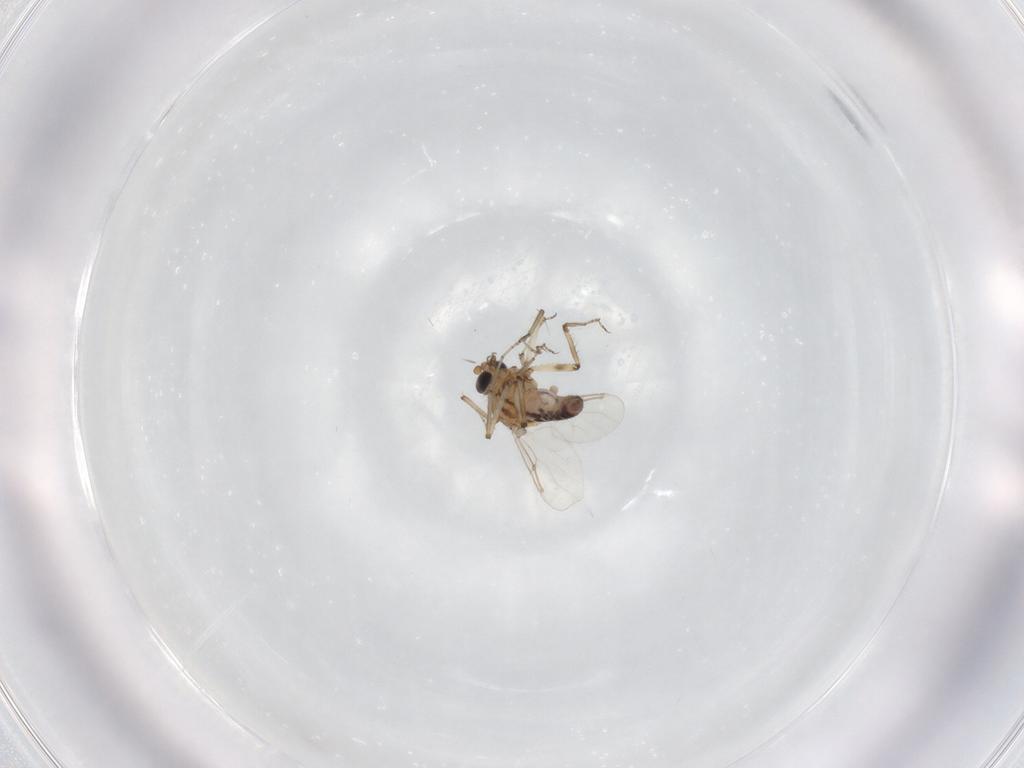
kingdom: Animalia
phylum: Arthropoda
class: Insecta
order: Diptera
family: Ceratopogonidae
